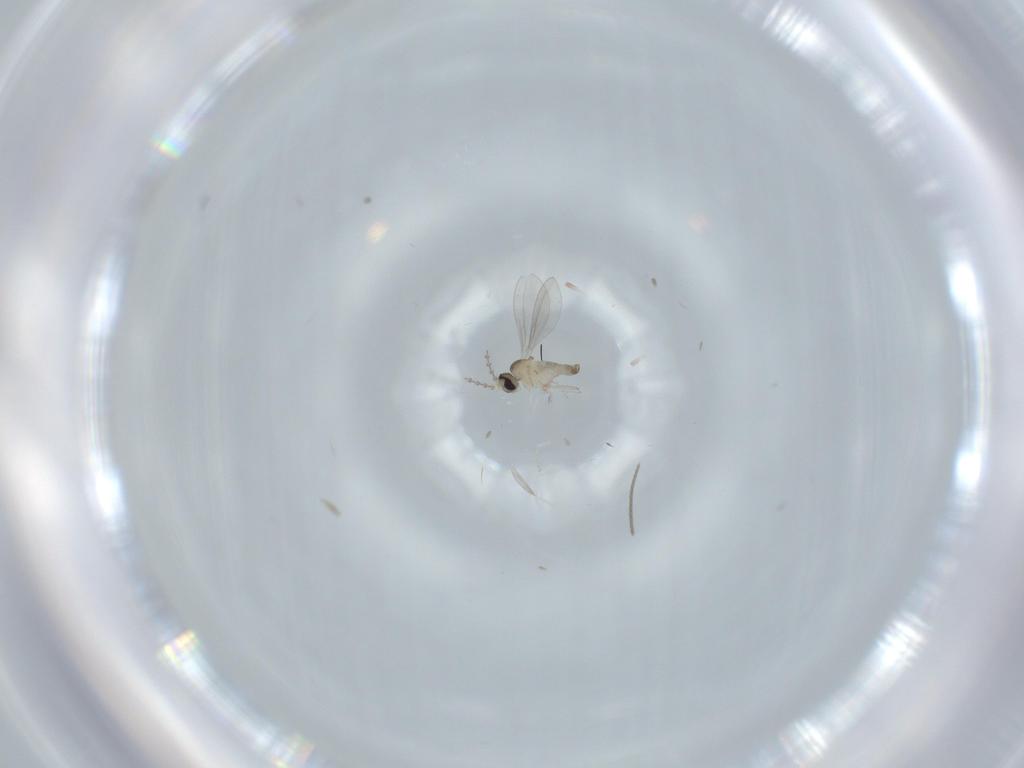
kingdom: Animalia
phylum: Arthropoda
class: Insecta
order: Diptera
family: Cecidomyiidae
